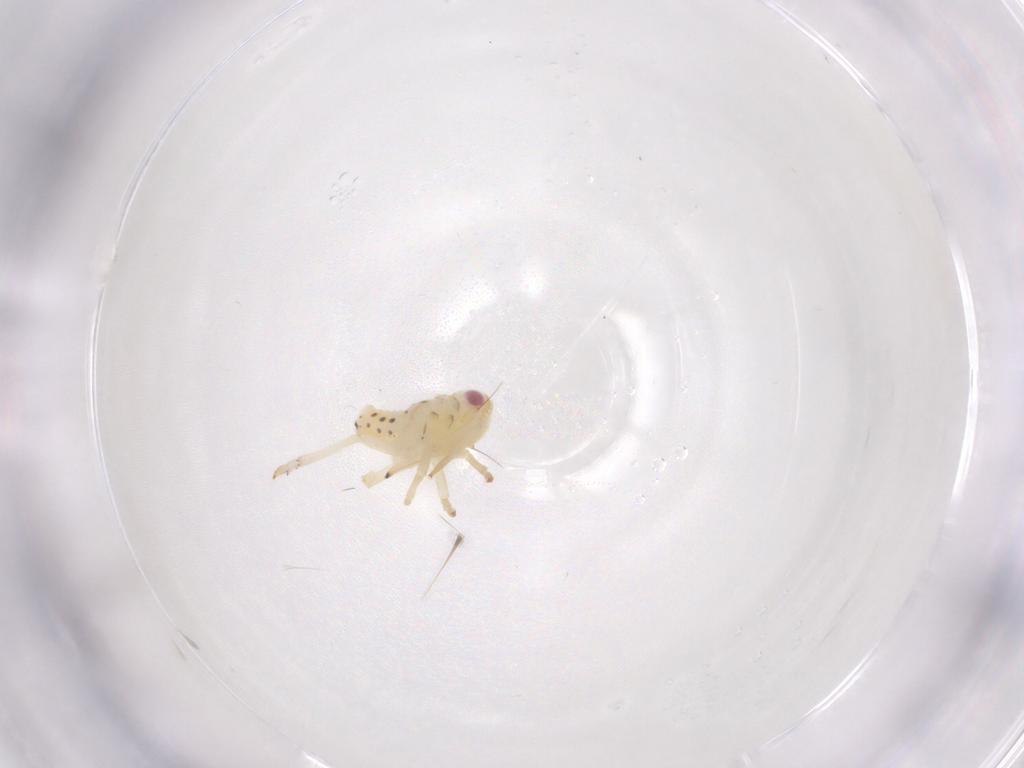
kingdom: Animalia
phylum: Arthropoda
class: Insecta
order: Hemiptera
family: Tropiduchidae
